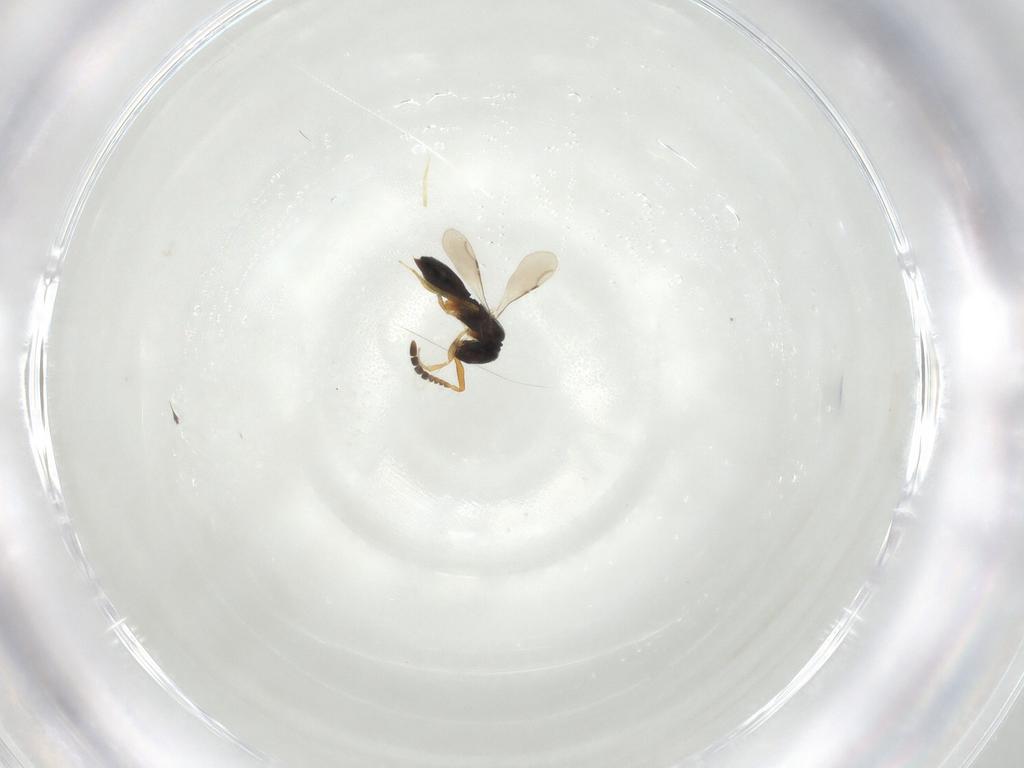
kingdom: Animalia
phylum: Arthropoda
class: Insecta
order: Hymenoptera
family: Ceraphronidae
